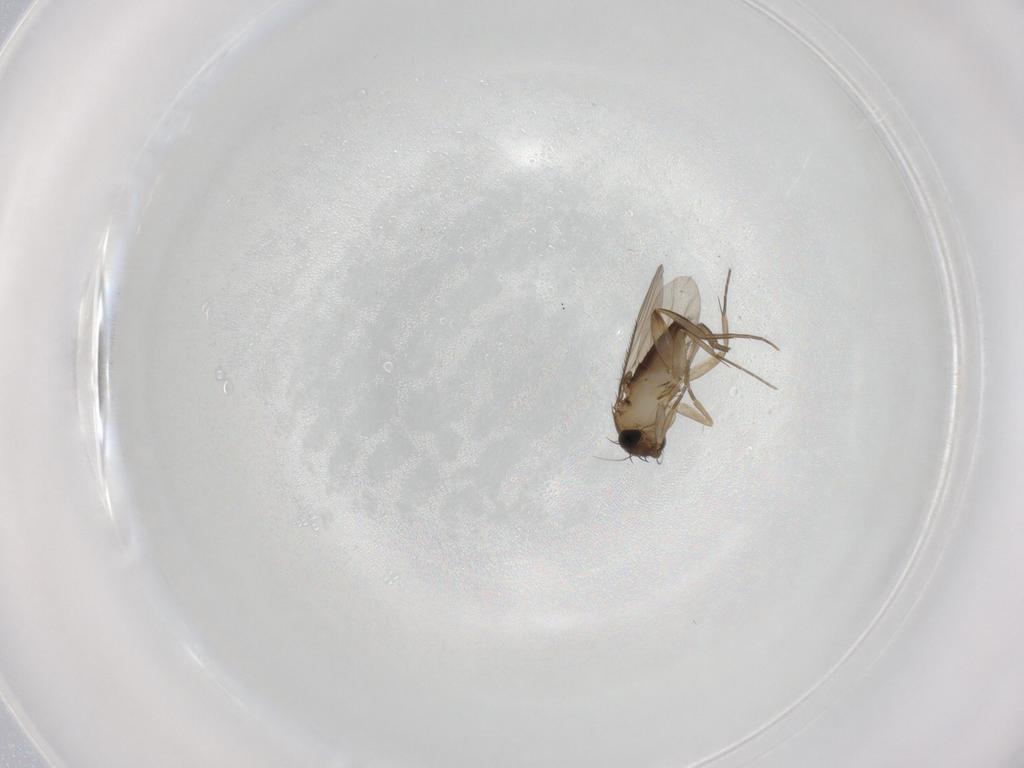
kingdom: Animalia
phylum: Arthropoda
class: Insecta
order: Diptera
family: Phoridae
